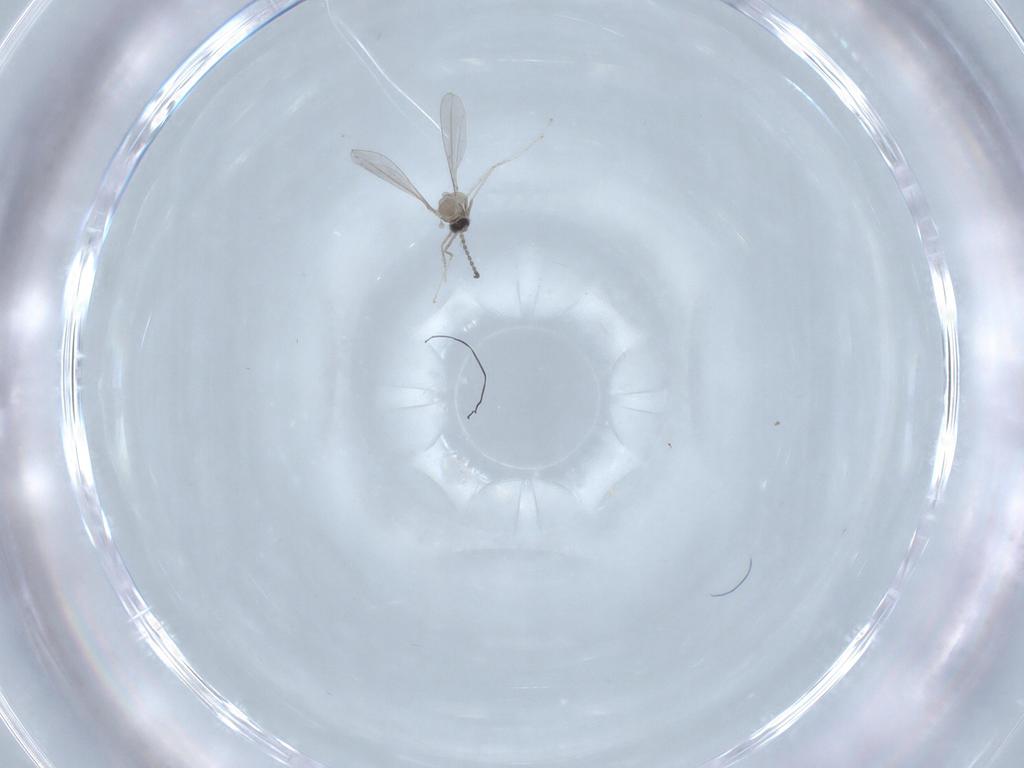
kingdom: Animalia
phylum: Arthropoda
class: Insecta
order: Diptera
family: Cecidomyiidae
